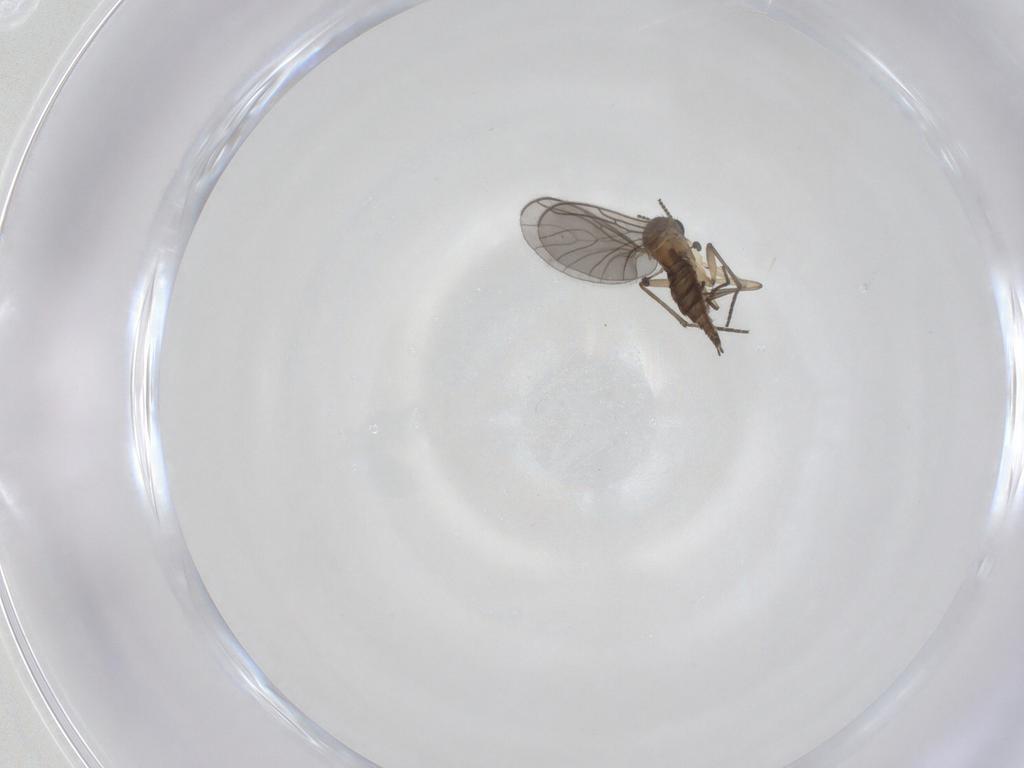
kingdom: Animalia
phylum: Arthropoda
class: Insecta
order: Diptera
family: Sciaridae
